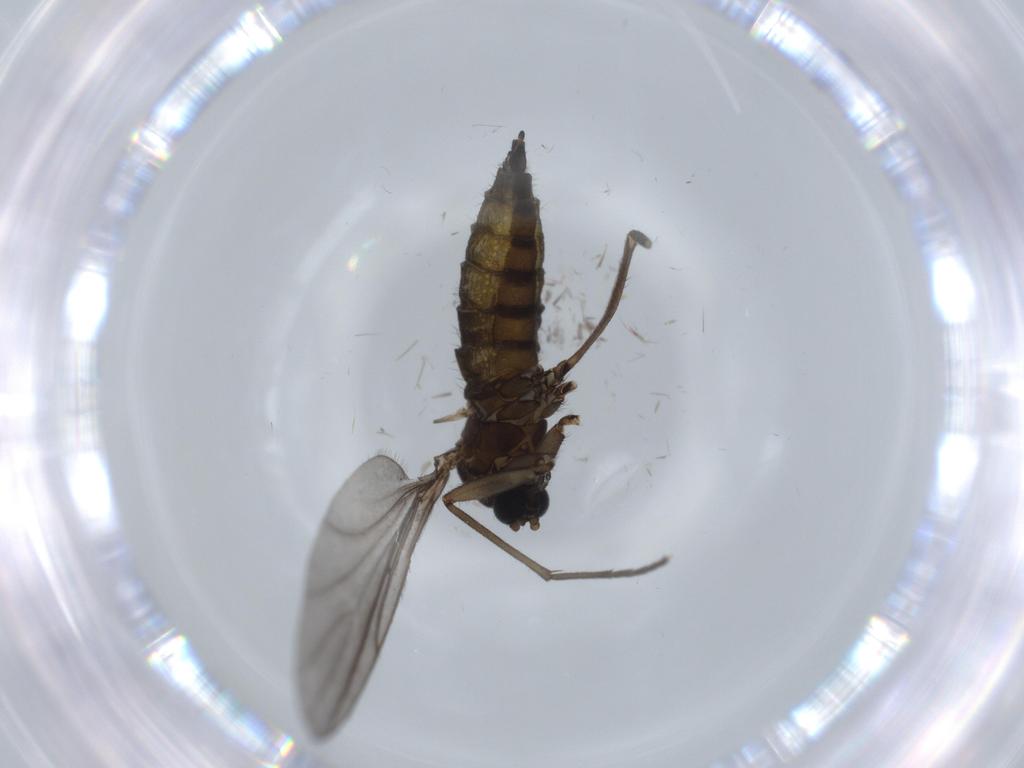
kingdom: Animalia
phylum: Arthropoda
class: Insecta
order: Diptera
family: Sciaridae
